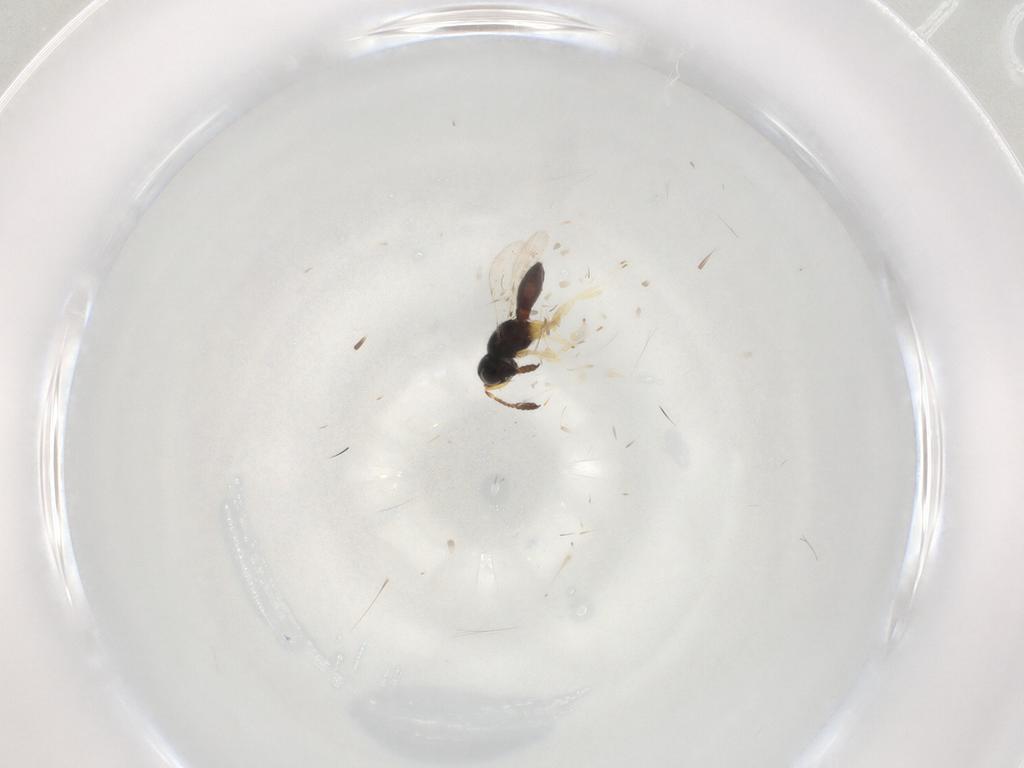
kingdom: Animalia
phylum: Arthropoda
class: Insecta
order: Hymenoptera
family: Scelionidae
